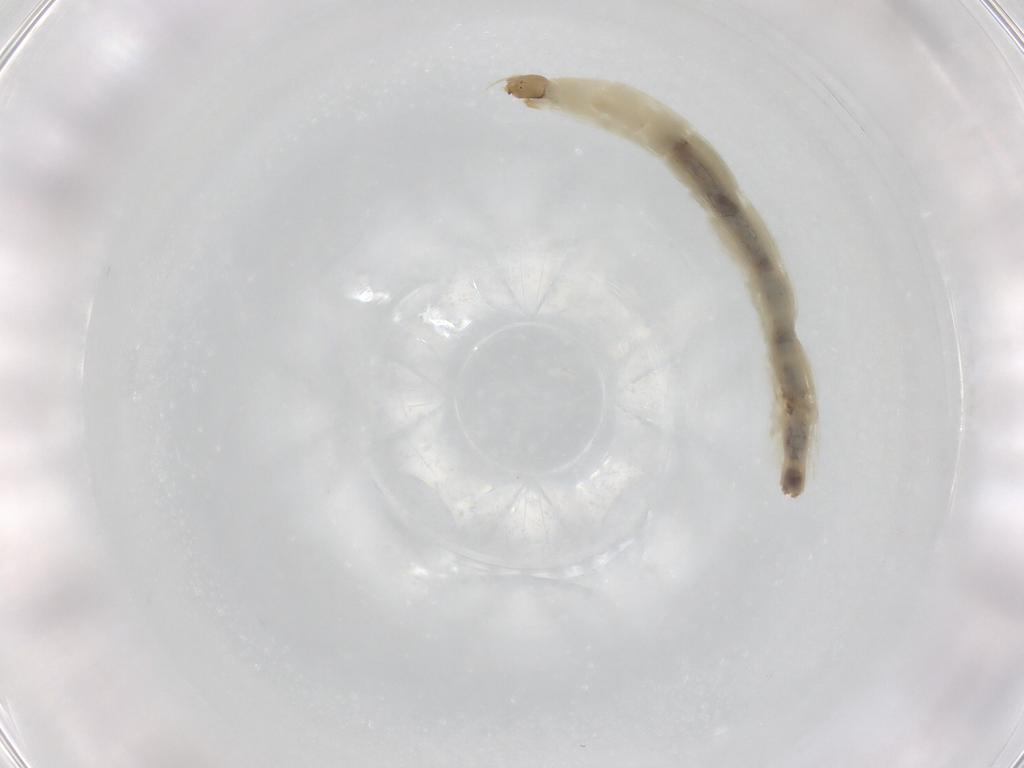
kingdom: Animalia
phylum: Arthropoda
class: Insecta
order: Diptera
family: Chironomidae
